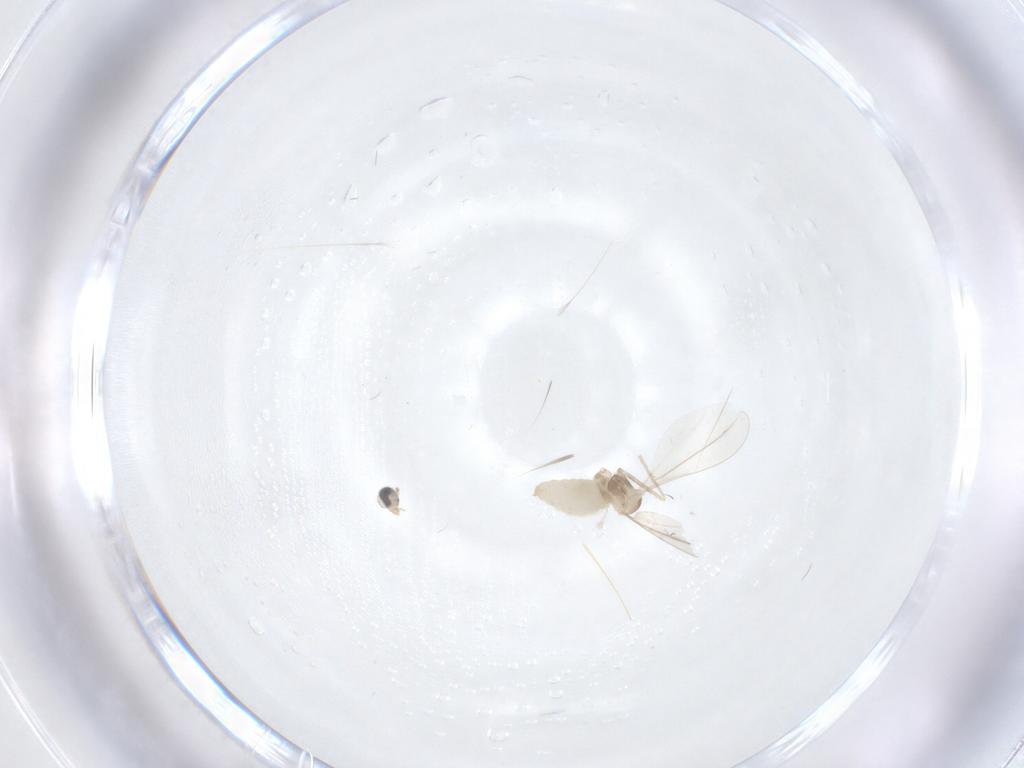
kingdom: Animalia
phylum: Arthropoda
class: Insecta
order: Diptera
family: Cecidomyiidae
